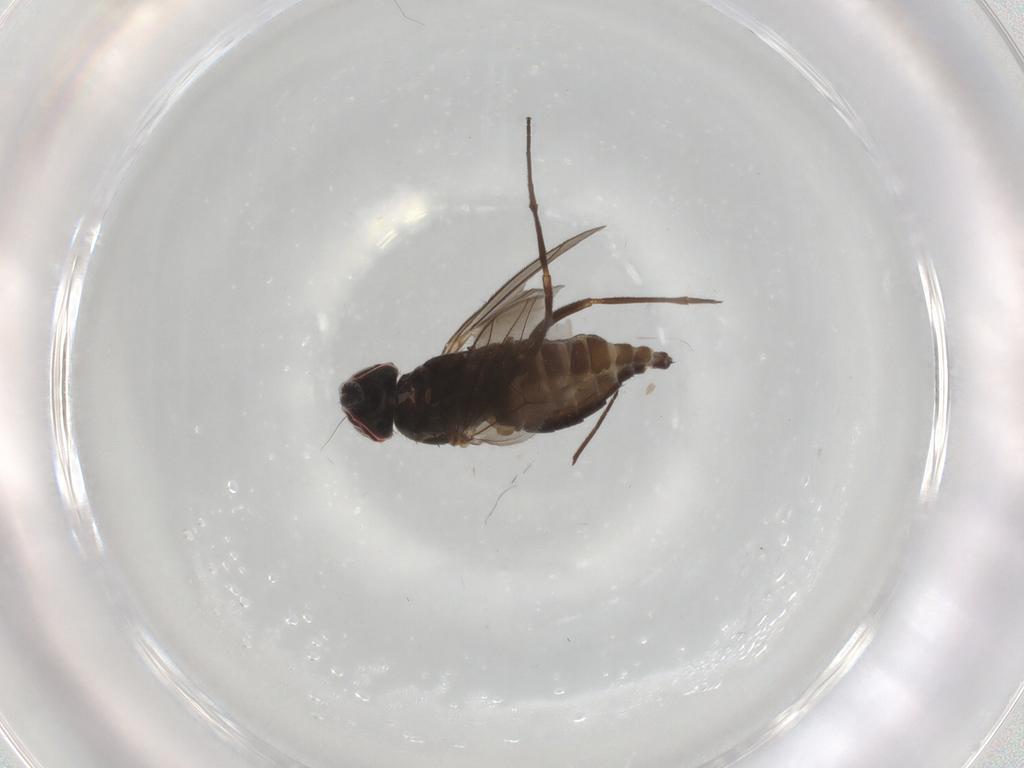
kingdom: Animalia
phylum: Arthropoda
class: Insecta
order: Diptera
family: Dolichopodidae
